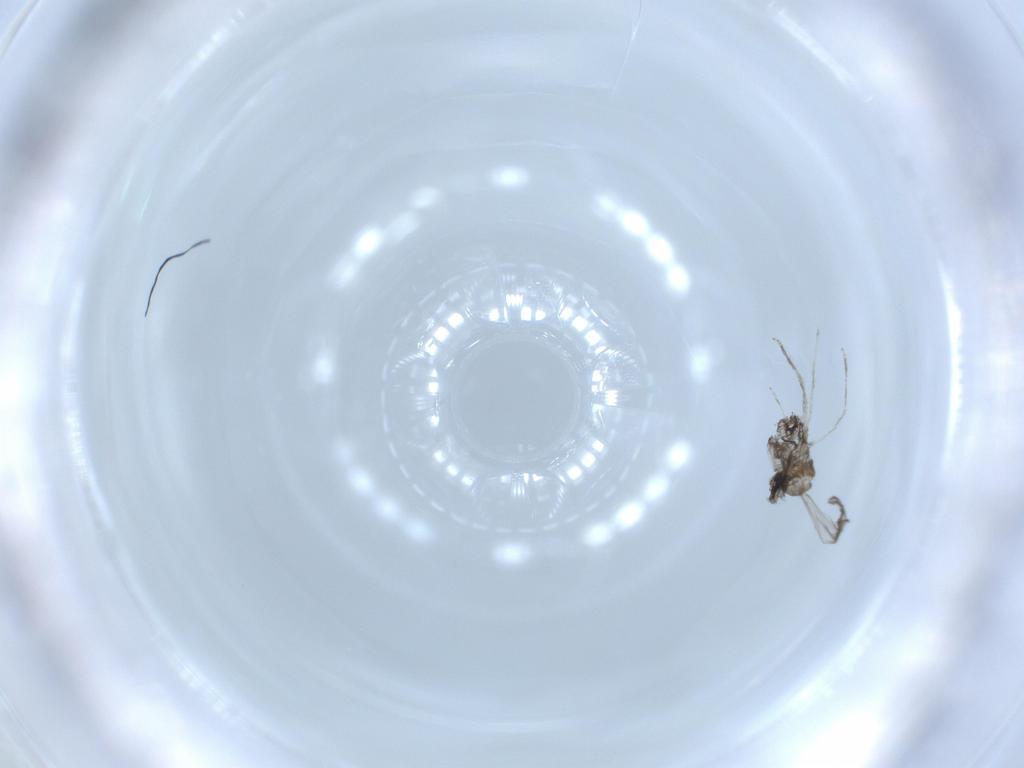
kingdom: Animalia
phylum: Arthropoda
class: Insecta
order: Diptera
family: Cecidomyiidae
